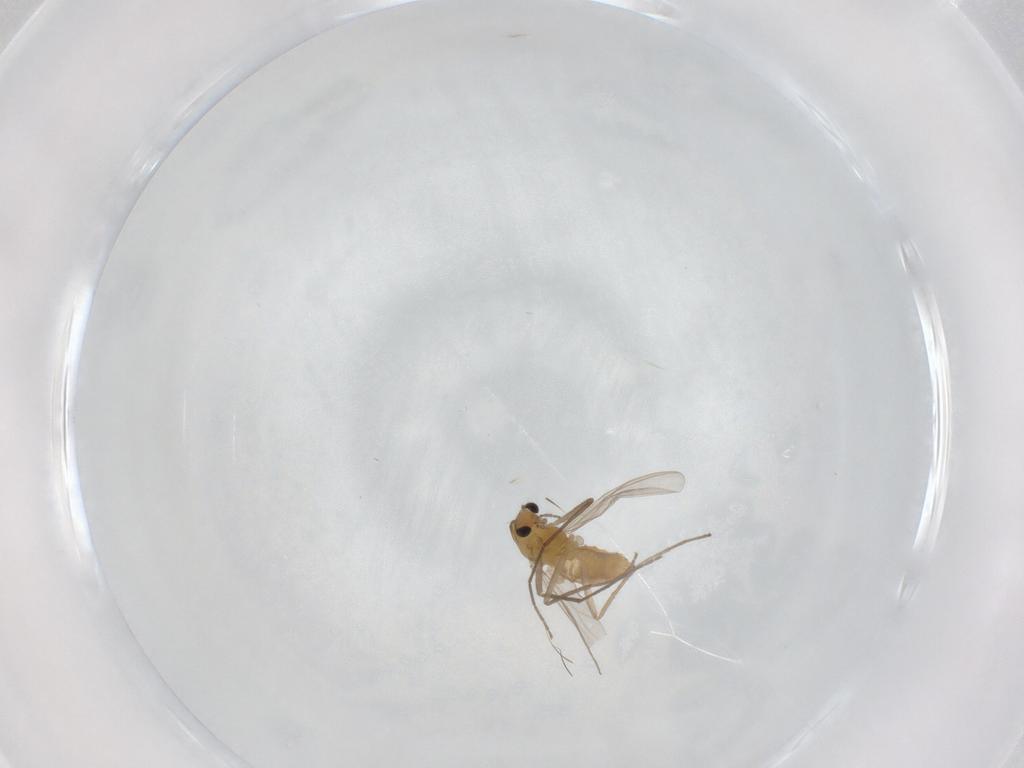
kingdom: Animalia
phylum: Arthropoda
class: Insecta
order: Diptera
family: Chironomidae
